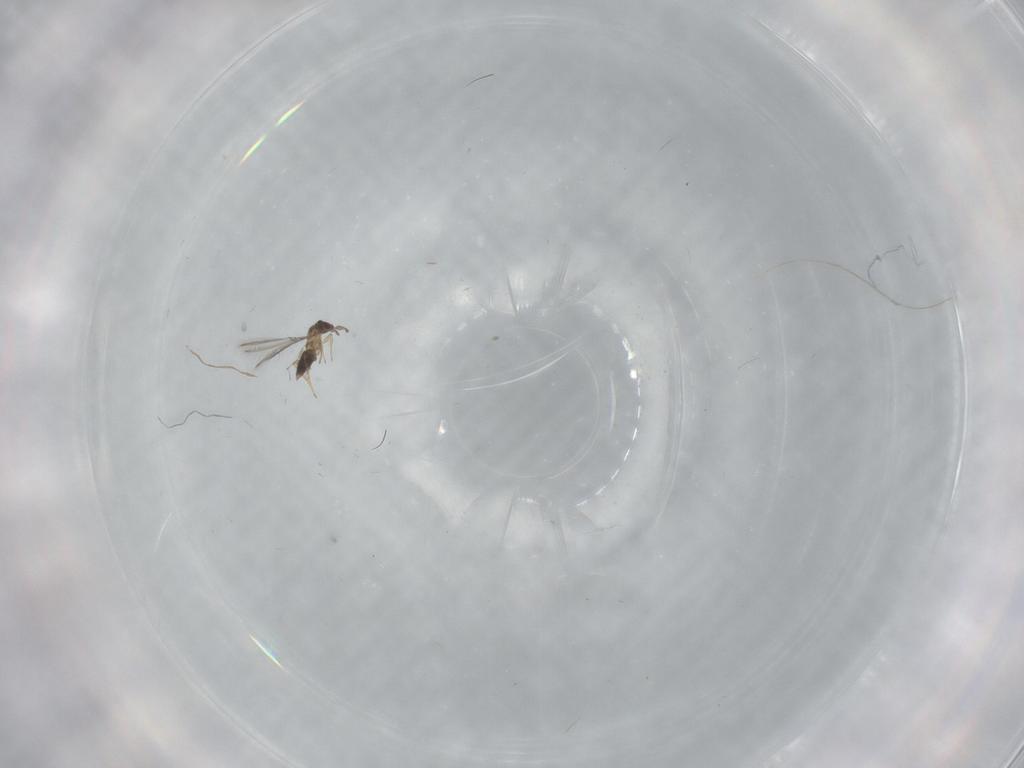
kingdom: Animalia
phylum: Arthropoda
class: Insecta
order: Hymenoptera
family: Mymaridae
